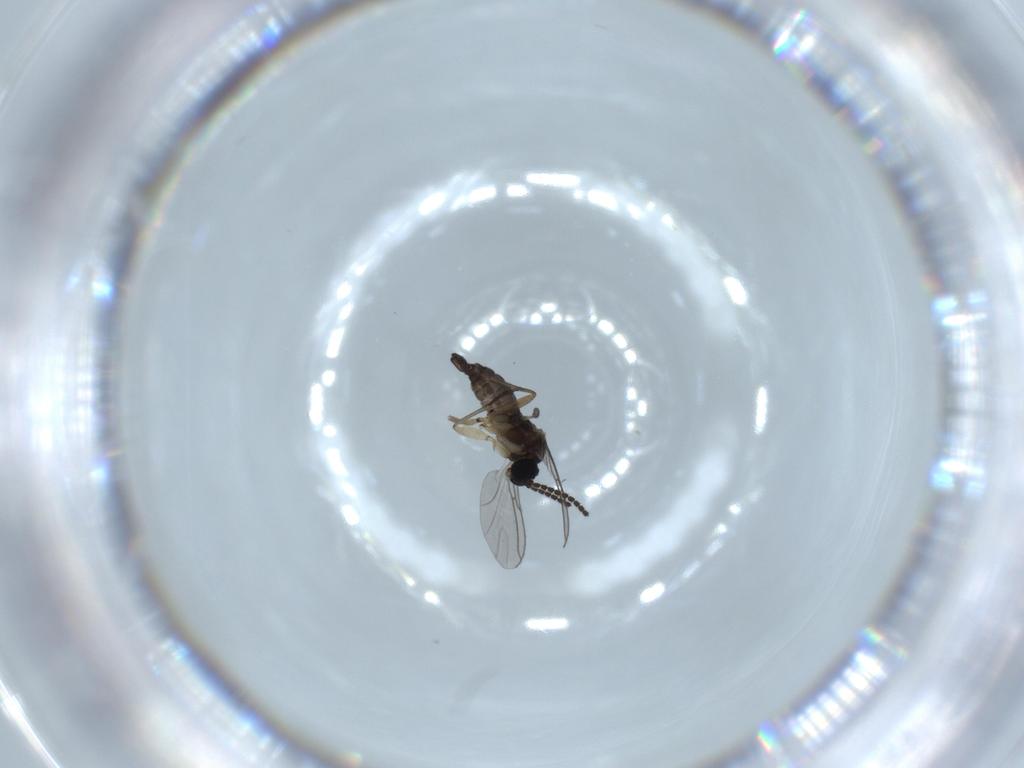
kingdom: Animalia
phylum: Arthropoda
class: Insecta
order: Diptera
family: Sciaridae
